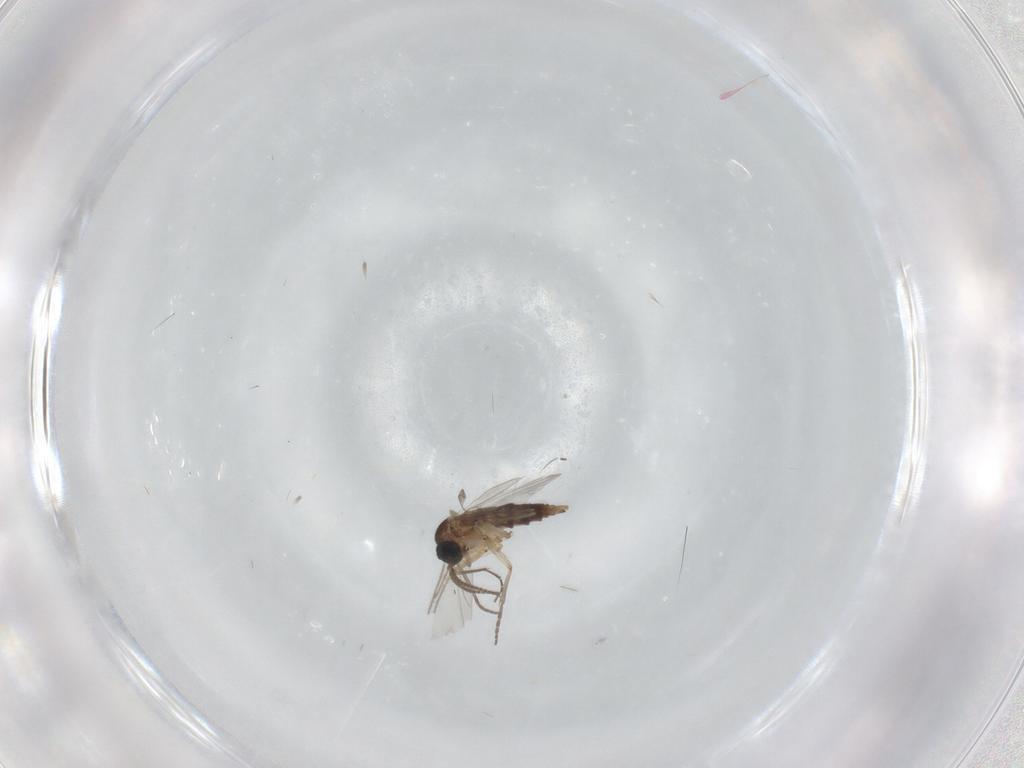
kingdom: Animalia
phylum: Arthropoda
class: Insecta
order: Diptera
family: Sciaridae
